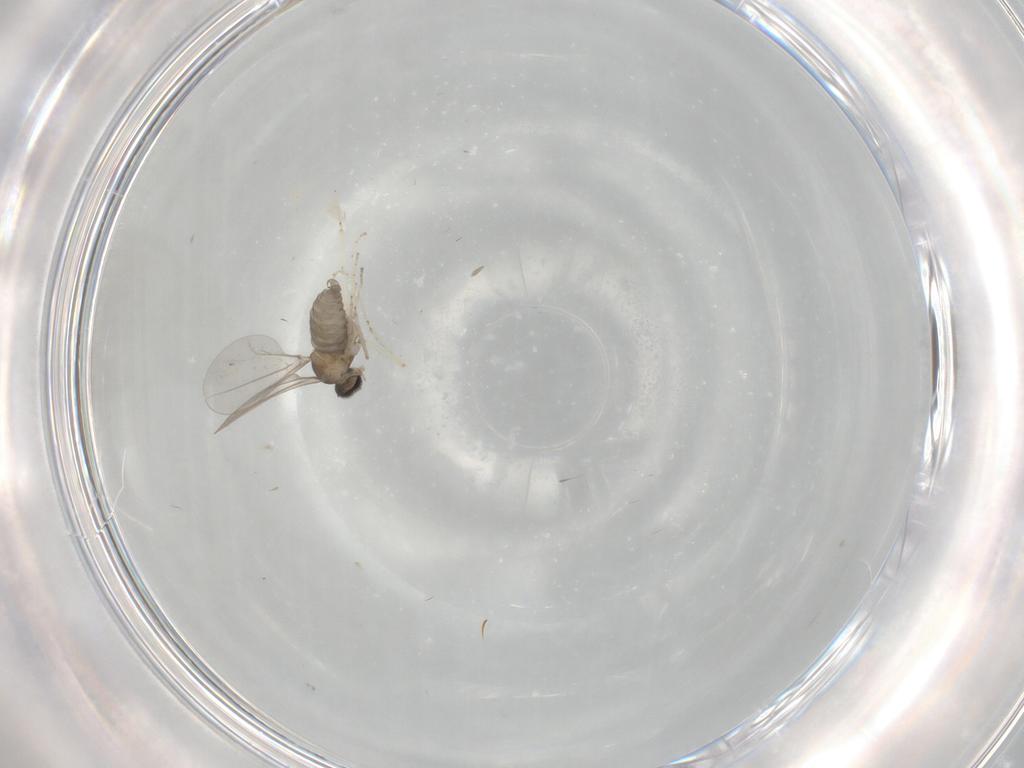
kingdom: Animalia
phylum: Arthropoda
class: Insecta
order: Diptera
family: Cecidomyiidae
